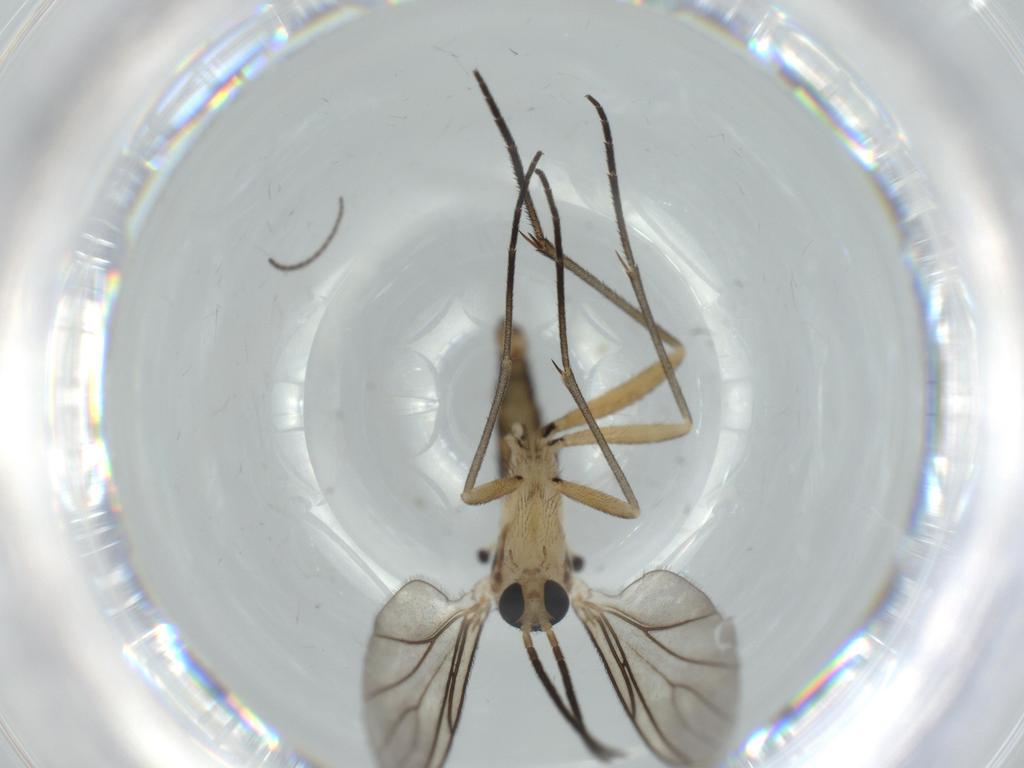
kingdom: Animalia
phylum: Arthropoda
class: Insecta
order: Diptera
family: Sciaridae
